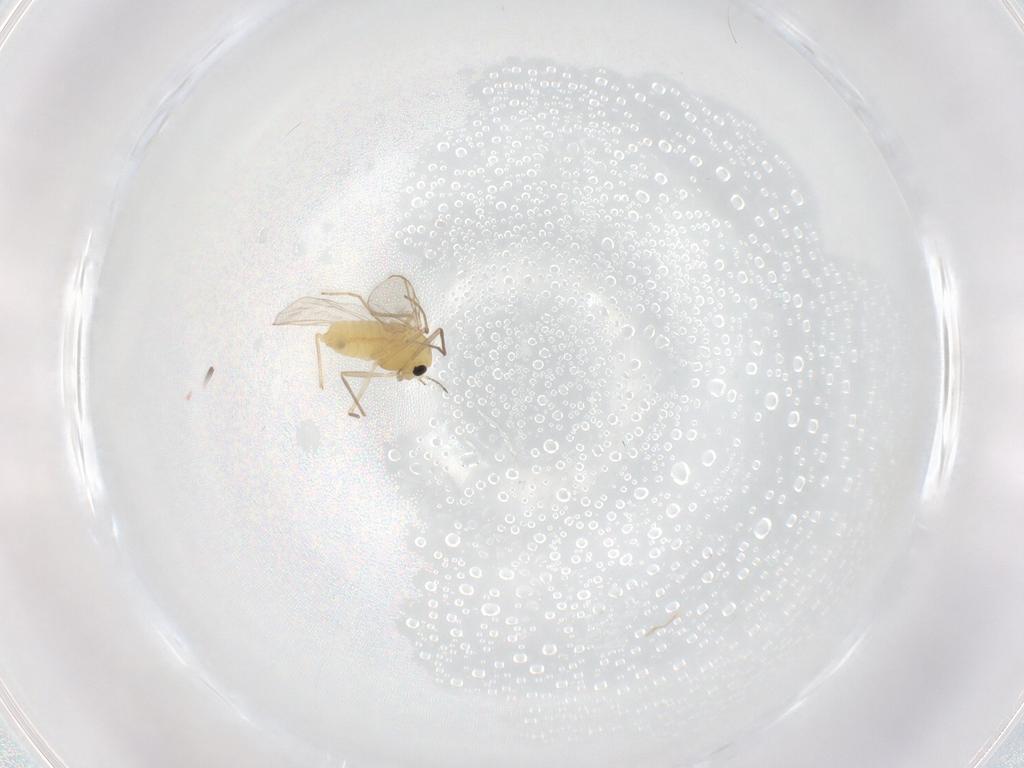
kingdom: Animalia
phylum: Arthropoda
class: Insecta
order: Diptera
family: Chironomidae
